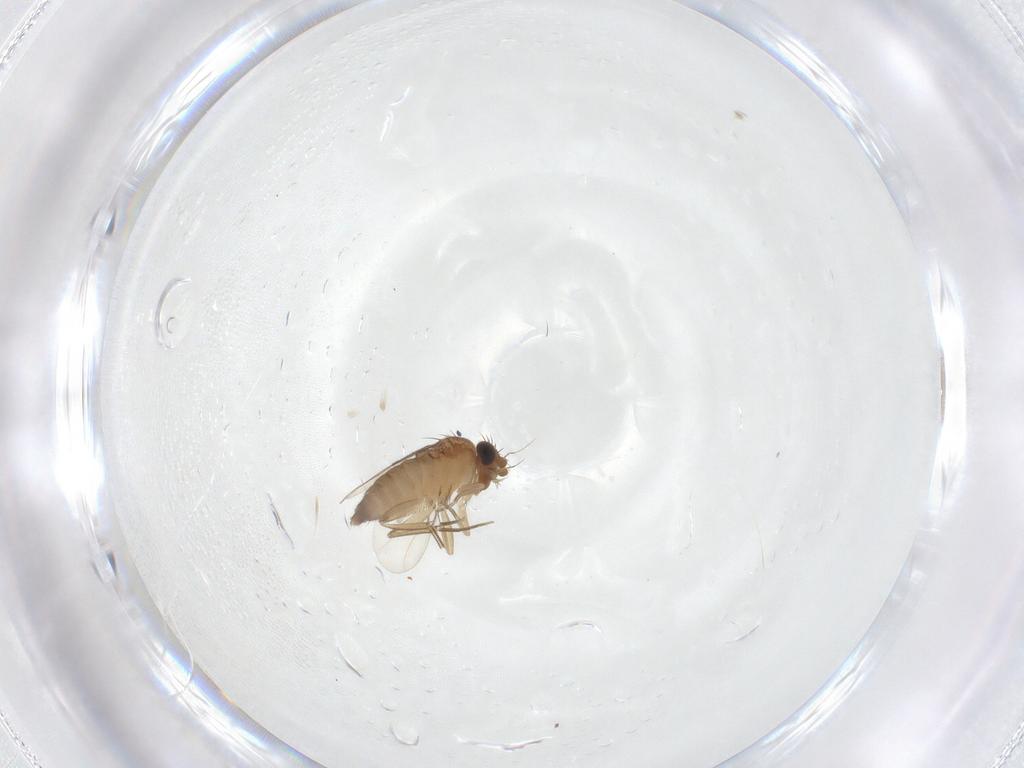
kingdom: Animalia
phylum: Arthropoda
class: Insecta
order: Diptera
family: Phoridae
